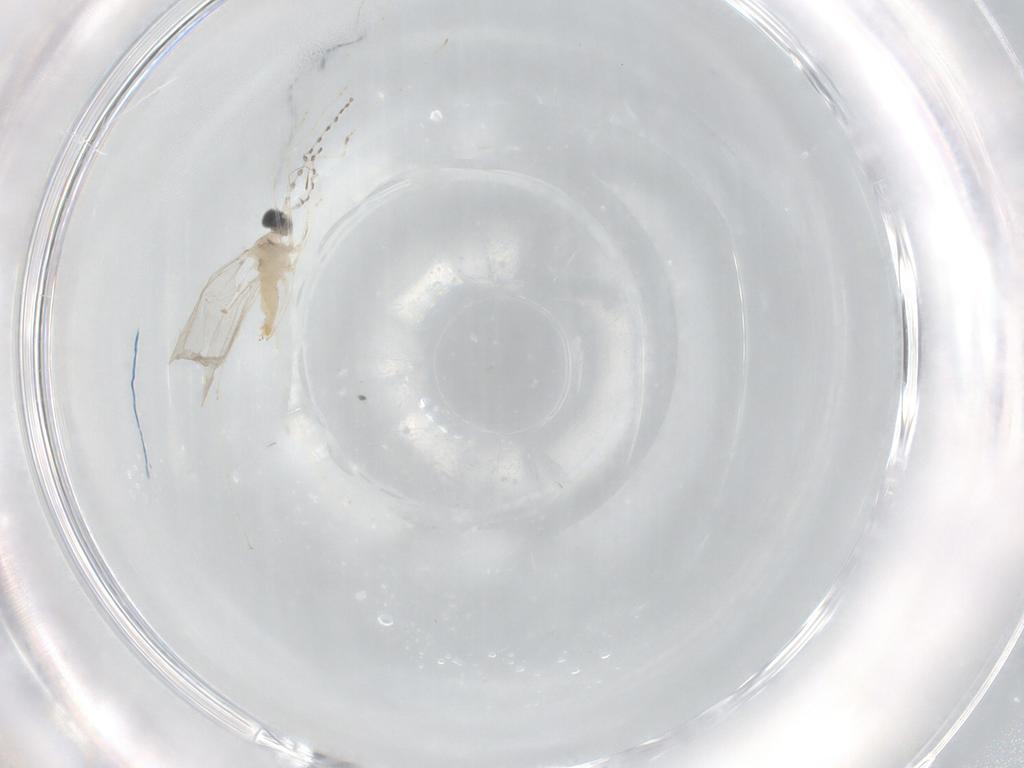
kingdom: Animalia
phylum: Arthropoda
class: Insecta
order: Diptera
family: Cecidomyiidae
